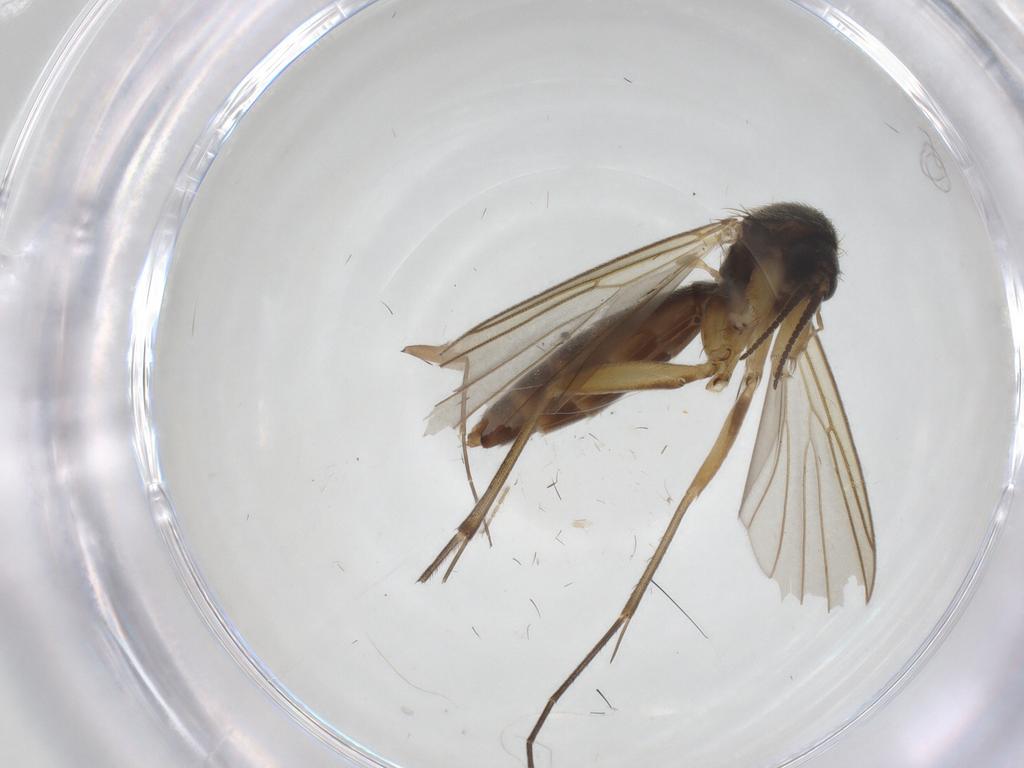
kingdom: Animalia
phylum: Arthropoda
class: Insecta
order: Diptera
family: Sciaridae
